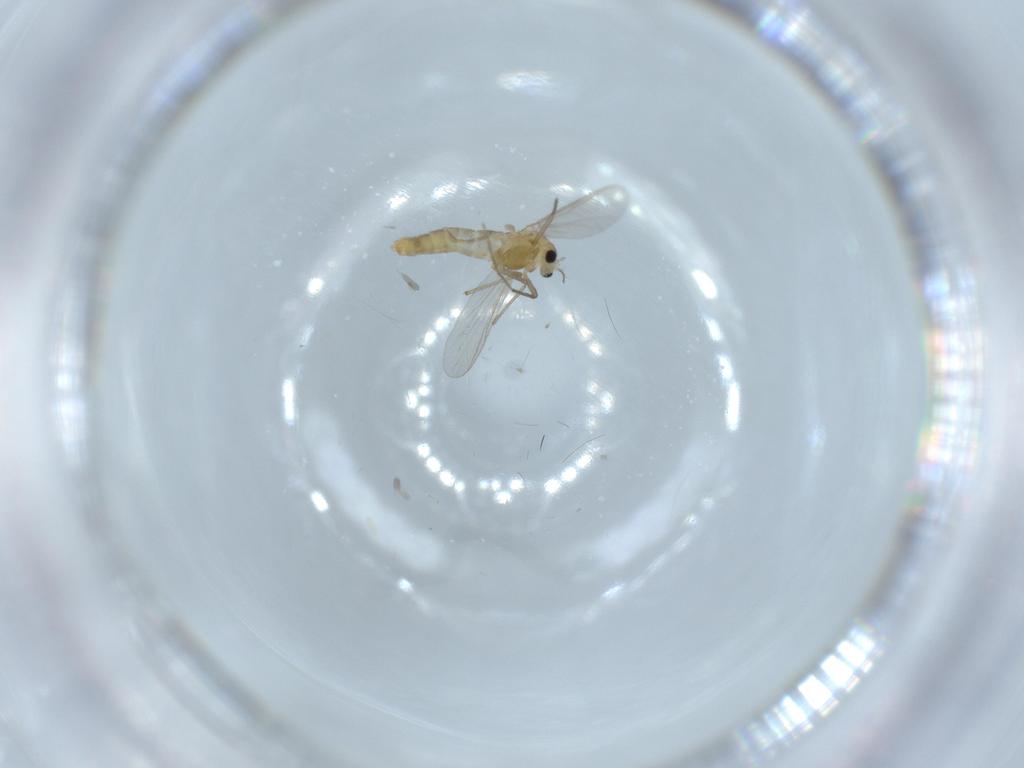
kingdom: Animalia
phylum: Arthropoda
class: Insecta
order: Diptera
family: Chironomidae
